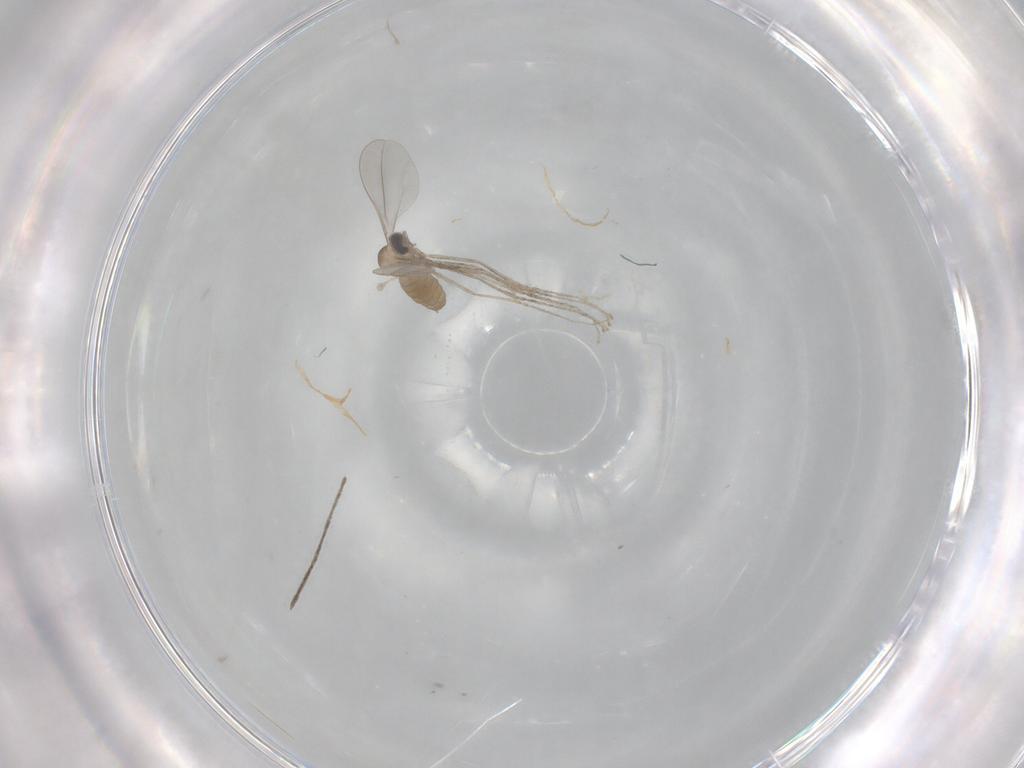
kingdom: Animalia
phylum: Arthropoda
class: Insecta
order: Diptera
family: Cecidomyiidae
